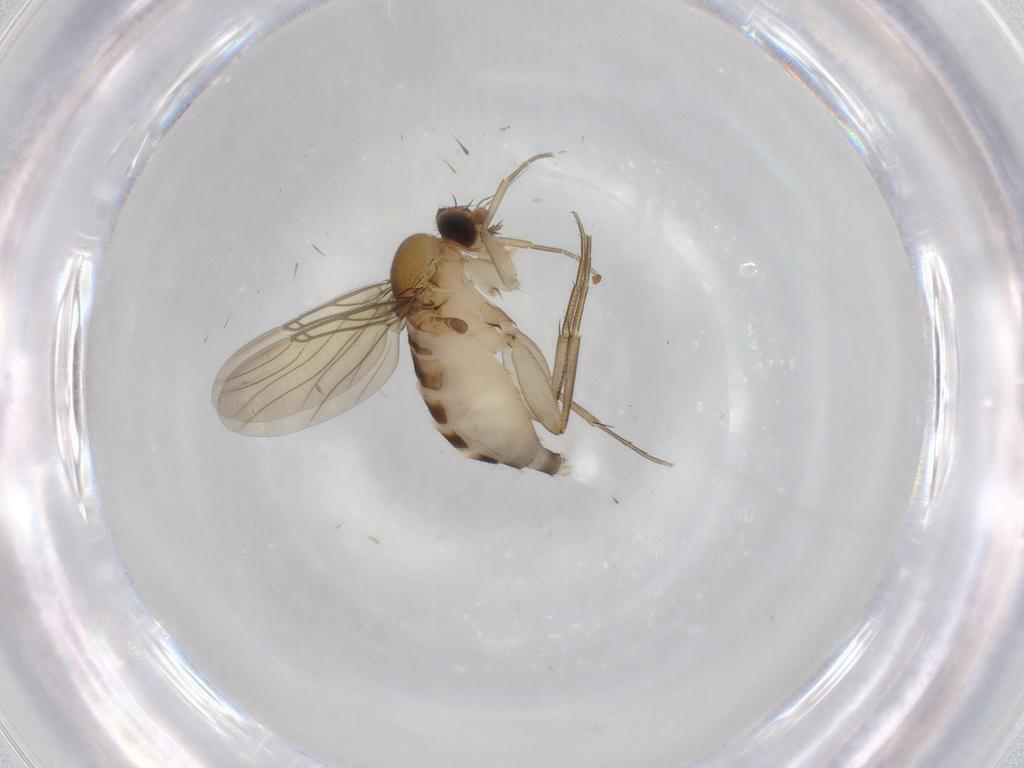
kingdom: Animalia
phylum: Arthropoda
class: Insecta
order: Diptera
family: Phoridae
